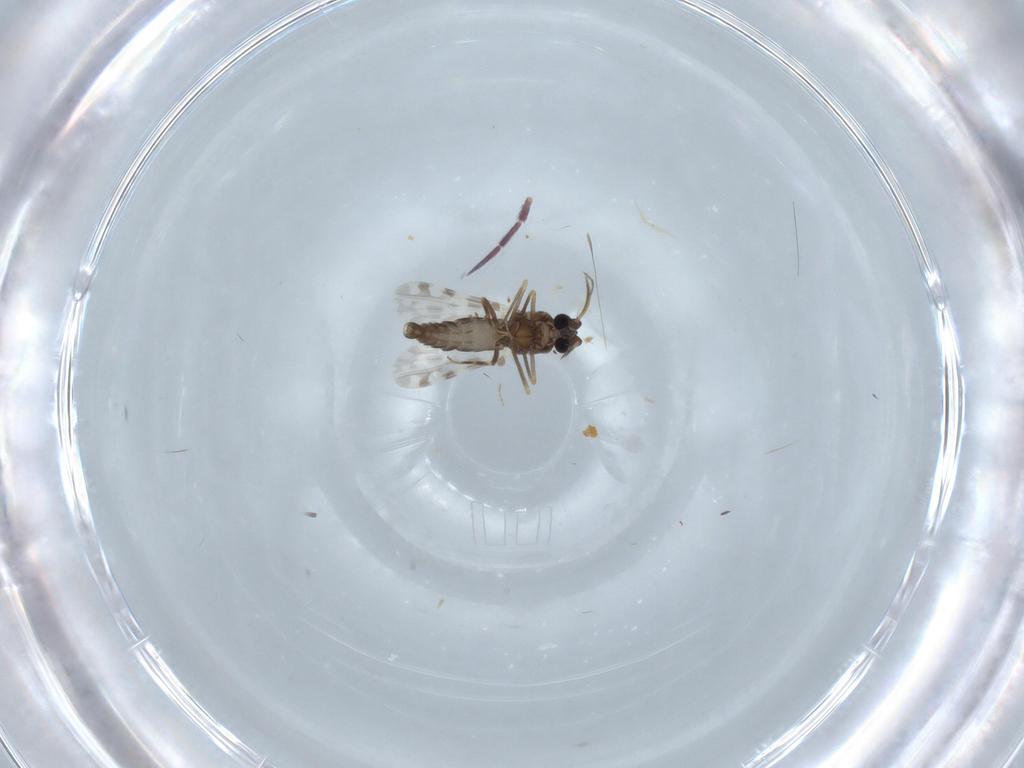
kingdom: Animalia
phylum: Arthropoda
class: Insecta
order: Diptera
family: Ceratopogonidae
